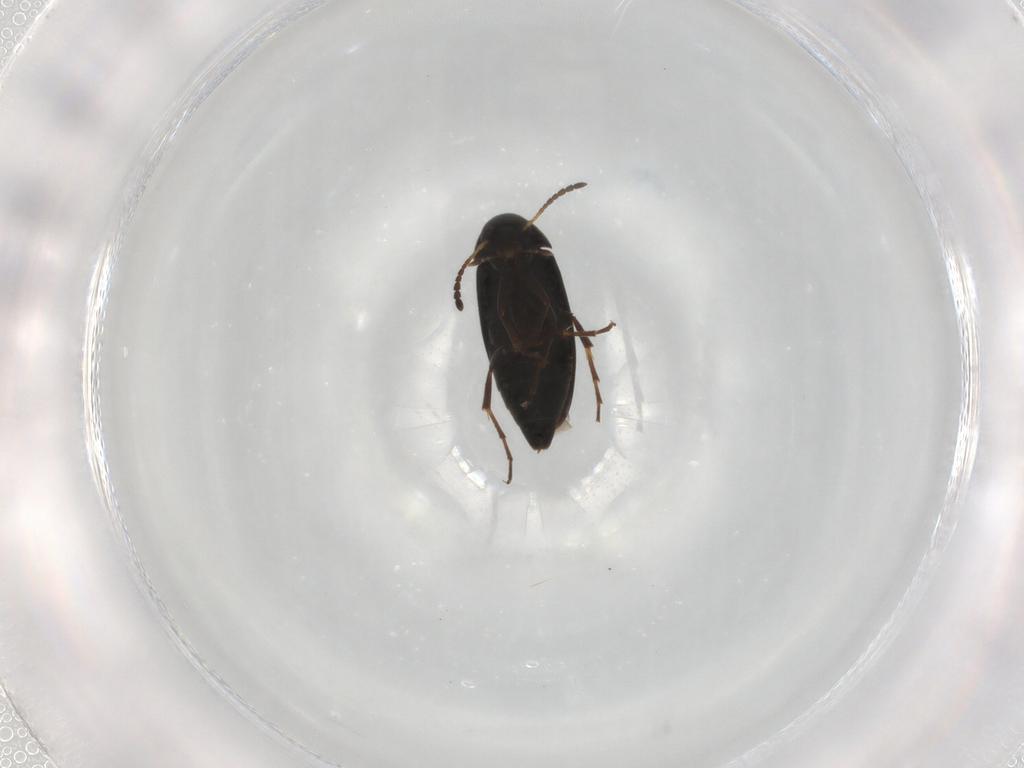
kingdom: Animalia
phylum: Arthropoda
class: Insecta
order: Coleoptera
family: Scraptiidae
